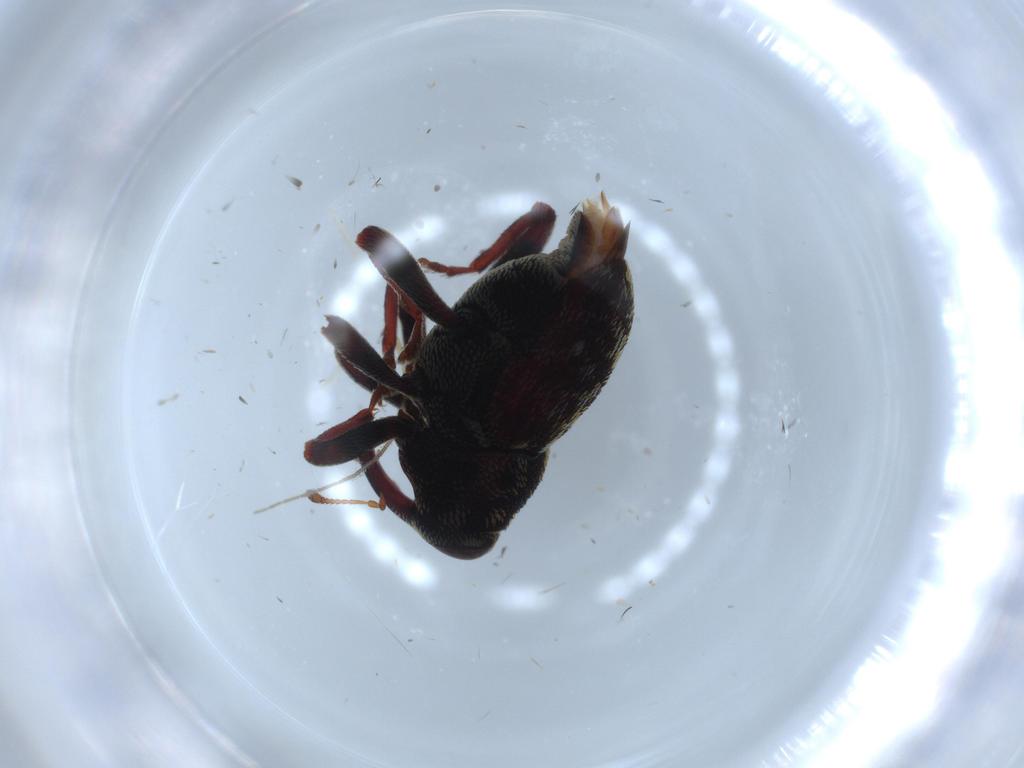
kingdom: Animalia
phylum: Arthropoda
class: Insecta
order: Coleoptera
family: Curculionidae
